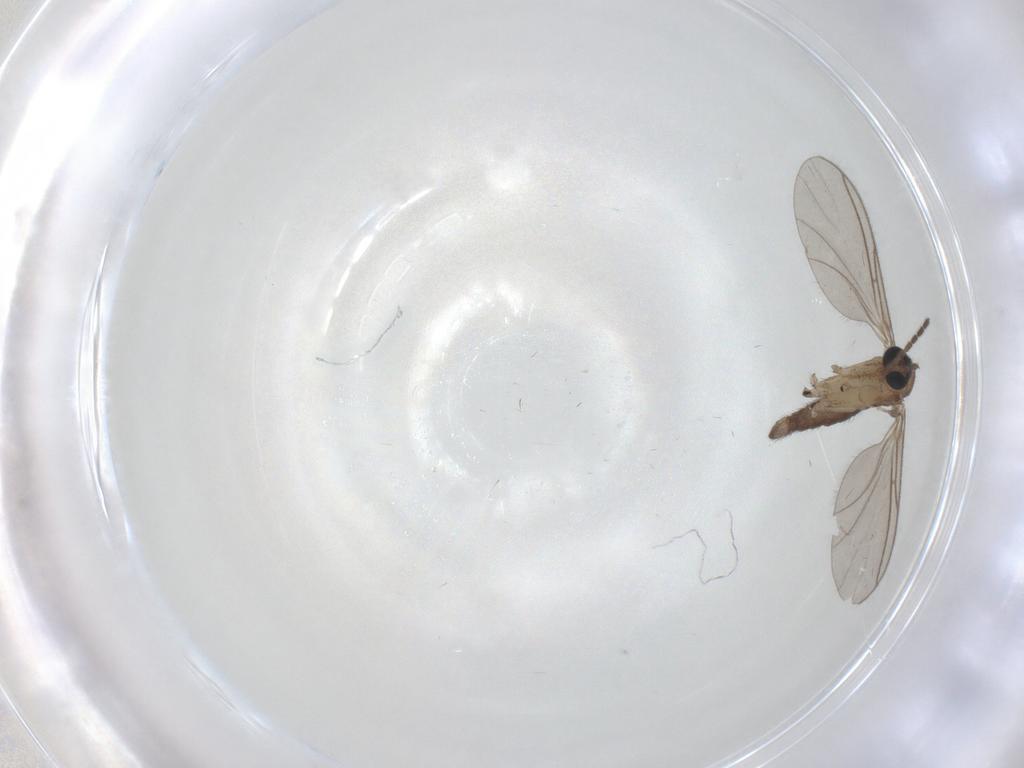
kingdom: Animalia
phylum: Arthropoda
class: Insecta
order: Diptera
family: Sciaridae
